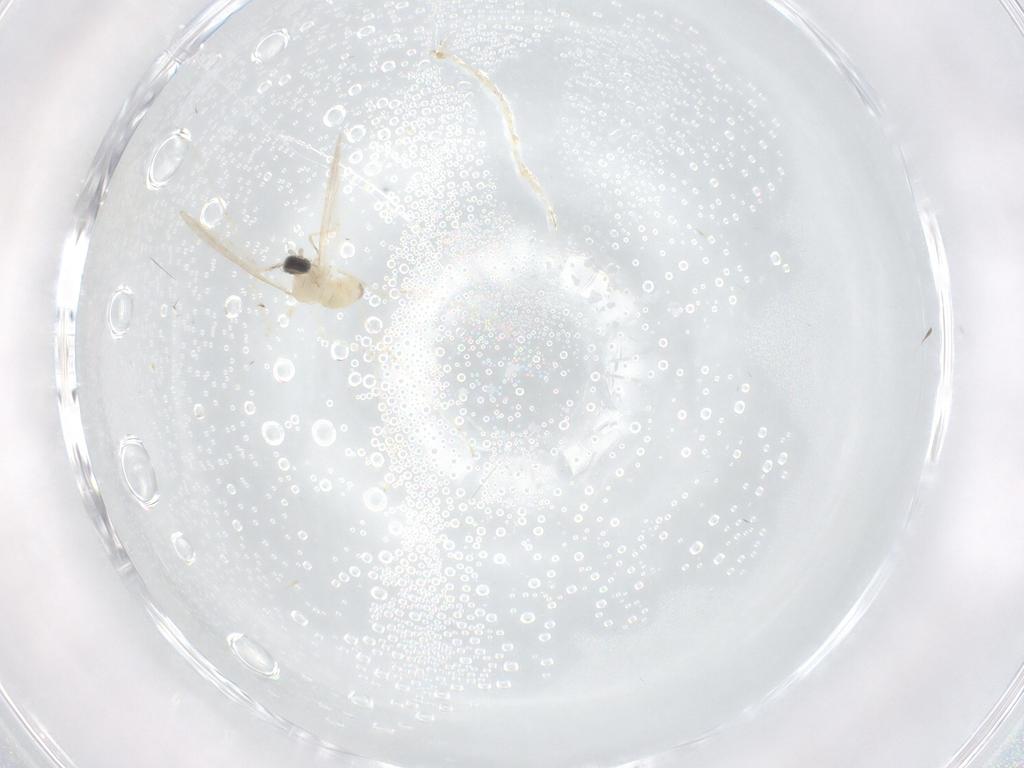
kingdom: Animalia
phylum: Arthropoda
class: Insecta
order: Diptera
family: Cecidomyiidae
